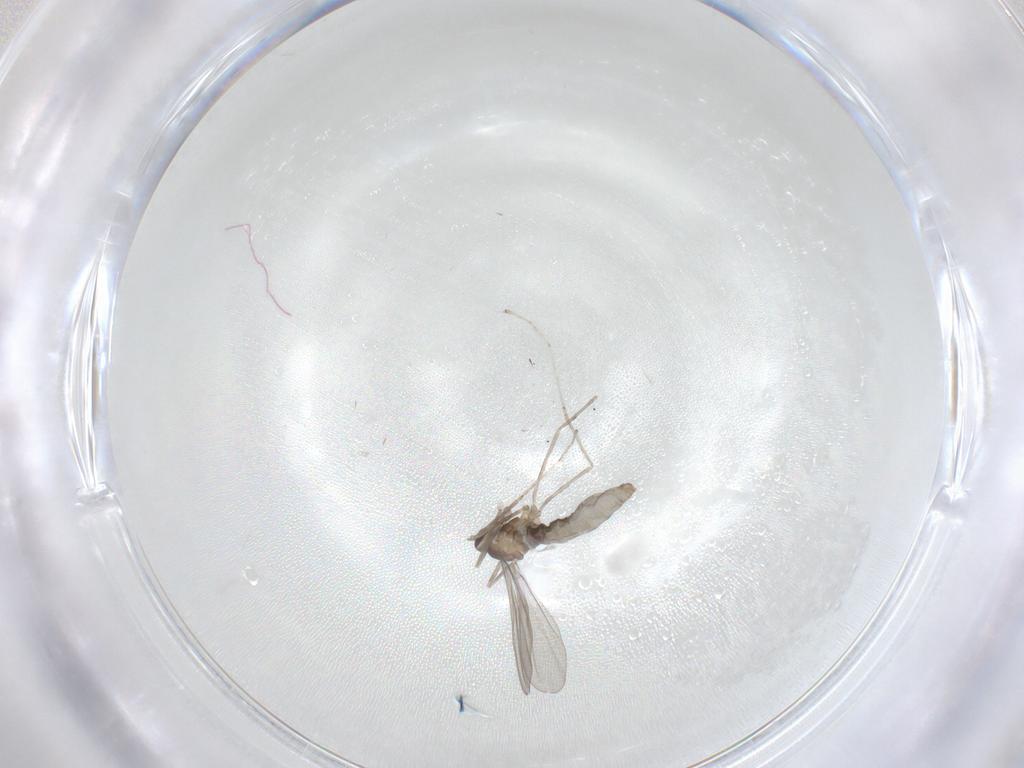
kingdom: Animalia
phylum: Arthropoda
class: Insecta
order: Diptera
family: Cecidomyiidae
